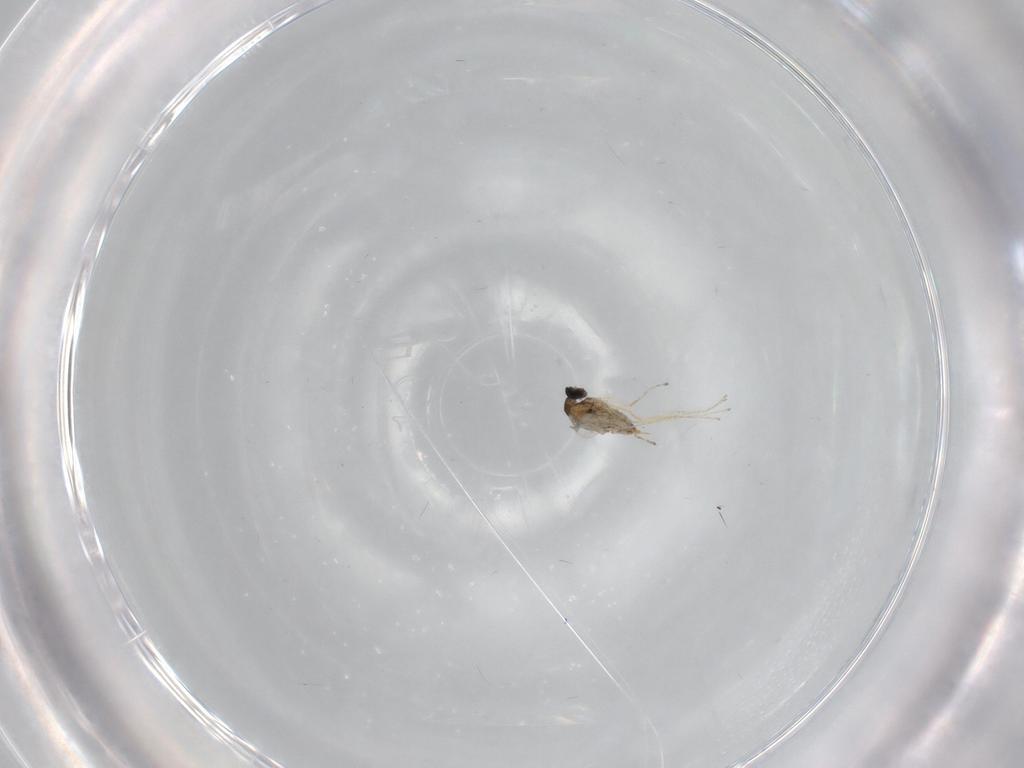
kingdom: Animalia
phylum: Arthropoda
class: Insecta
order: Diptera
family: Cecidomyiidae
